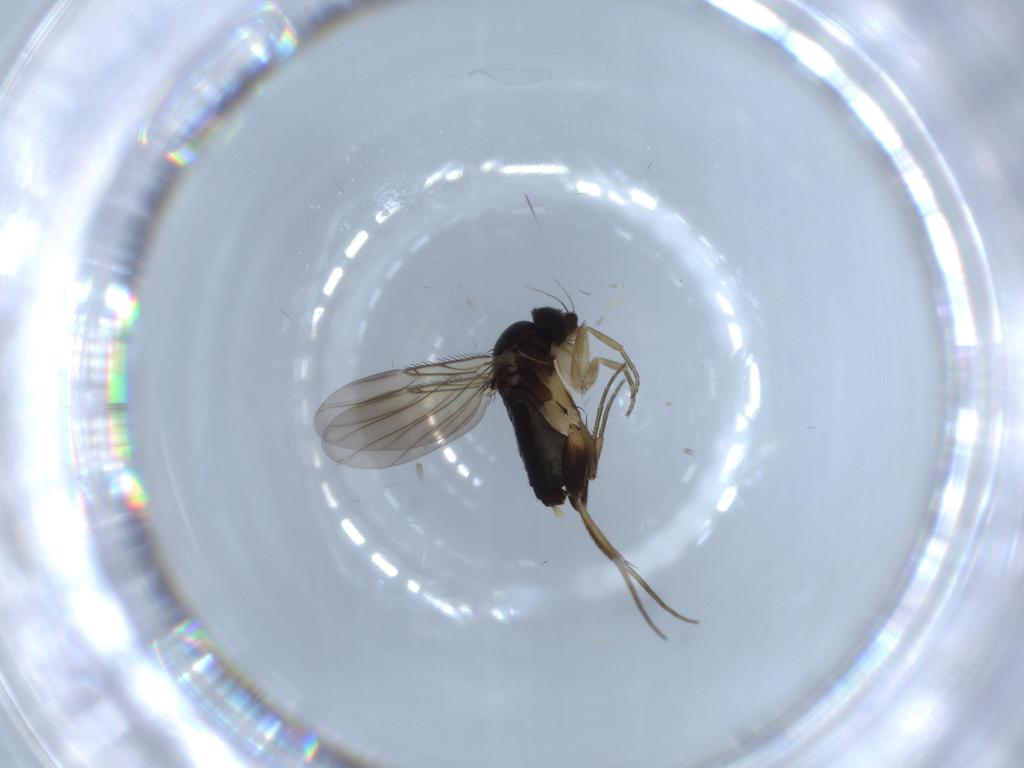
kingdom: Animalia
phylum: Arthropoda
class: Insecta
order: Diptera
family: Phoridae
